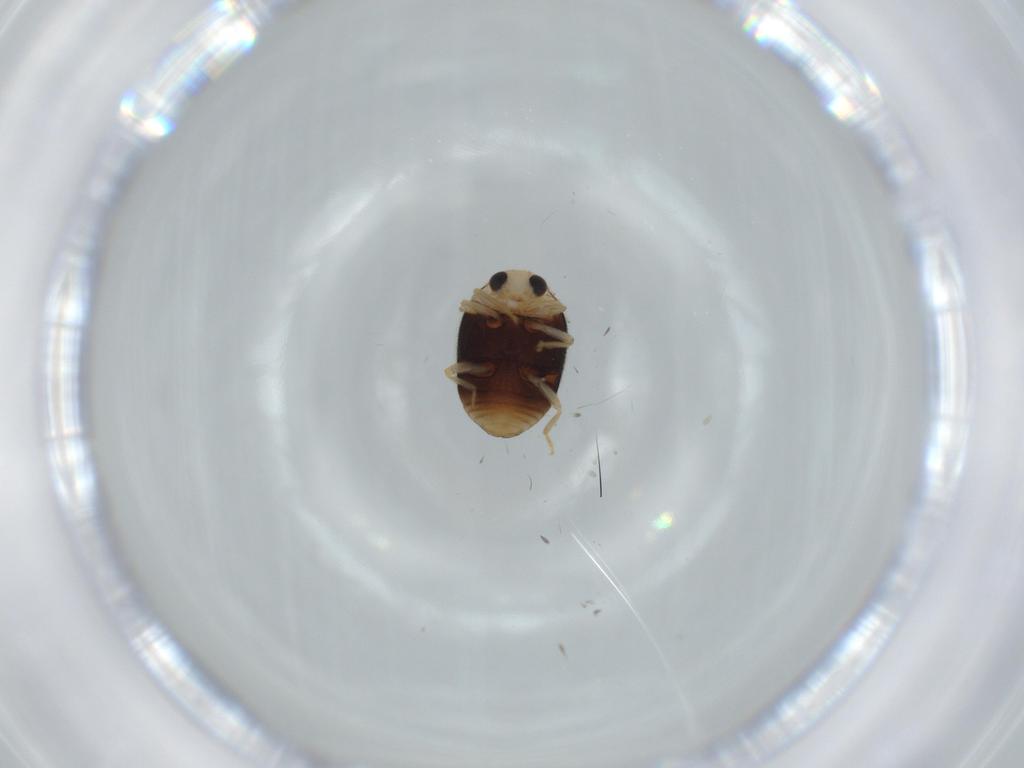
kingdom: Animalia
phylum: Arthropoda
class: Insecta
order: Coleoptera
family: Coccinellidae
